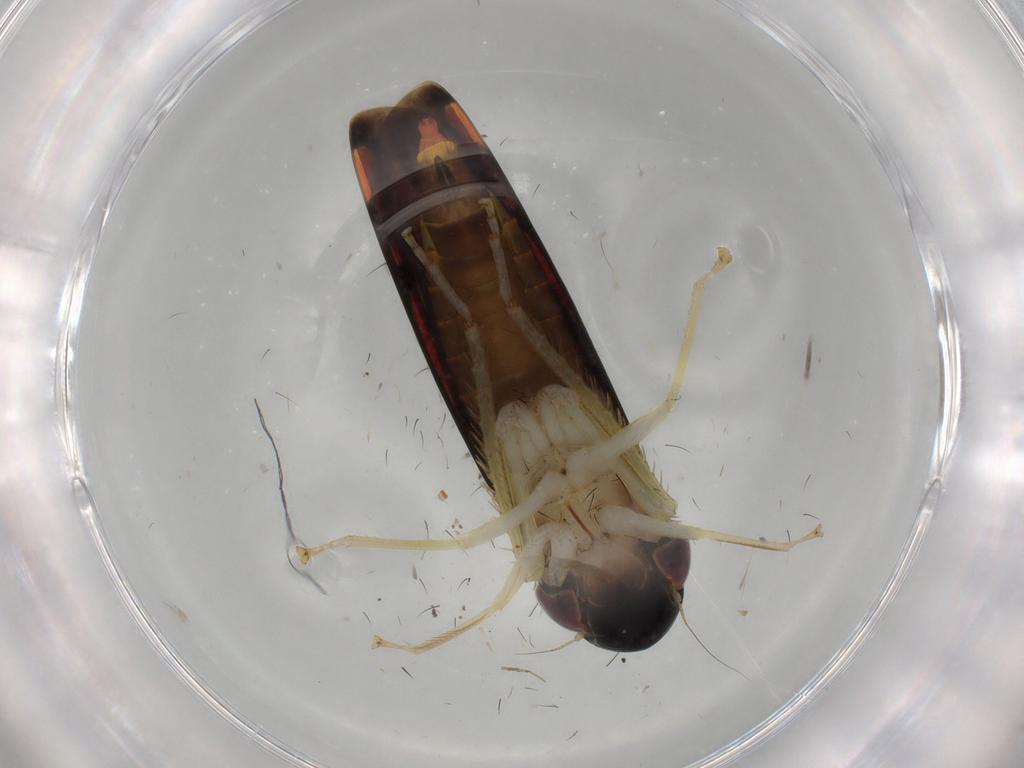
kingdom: Animalia
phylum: Arthropoda
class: Insecta
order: Hemiptera
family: Cicadellidae
